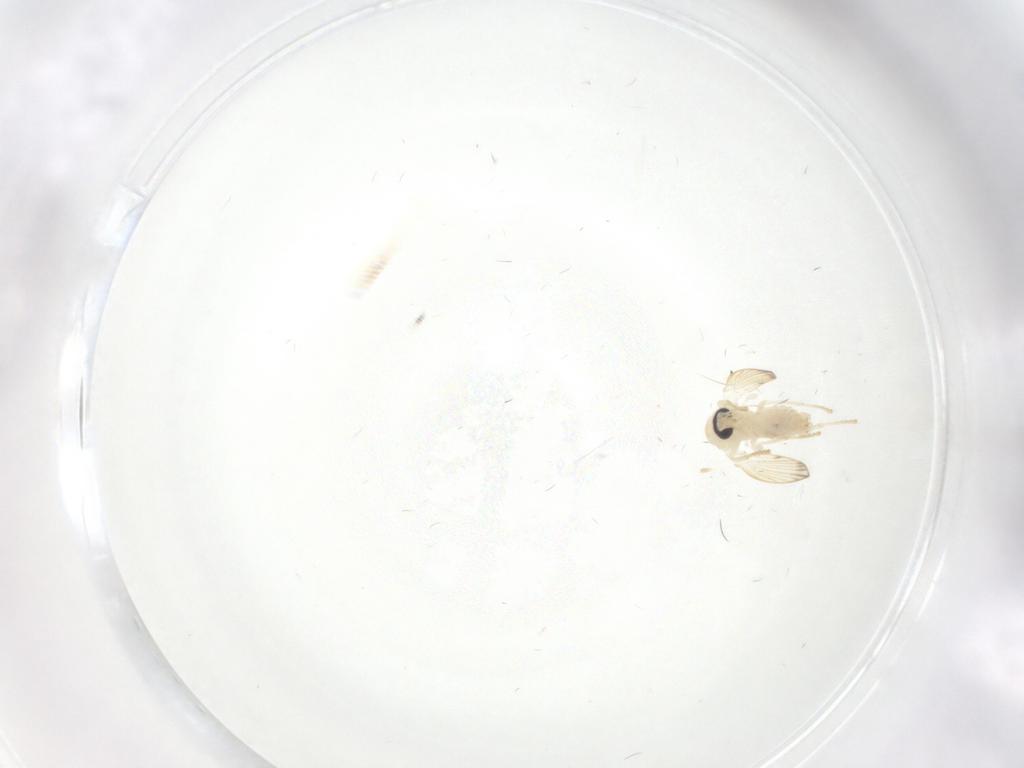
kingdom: Animalia
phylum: Arthropoda
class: Insecta
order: Diptera
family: Ceratopogonidae
